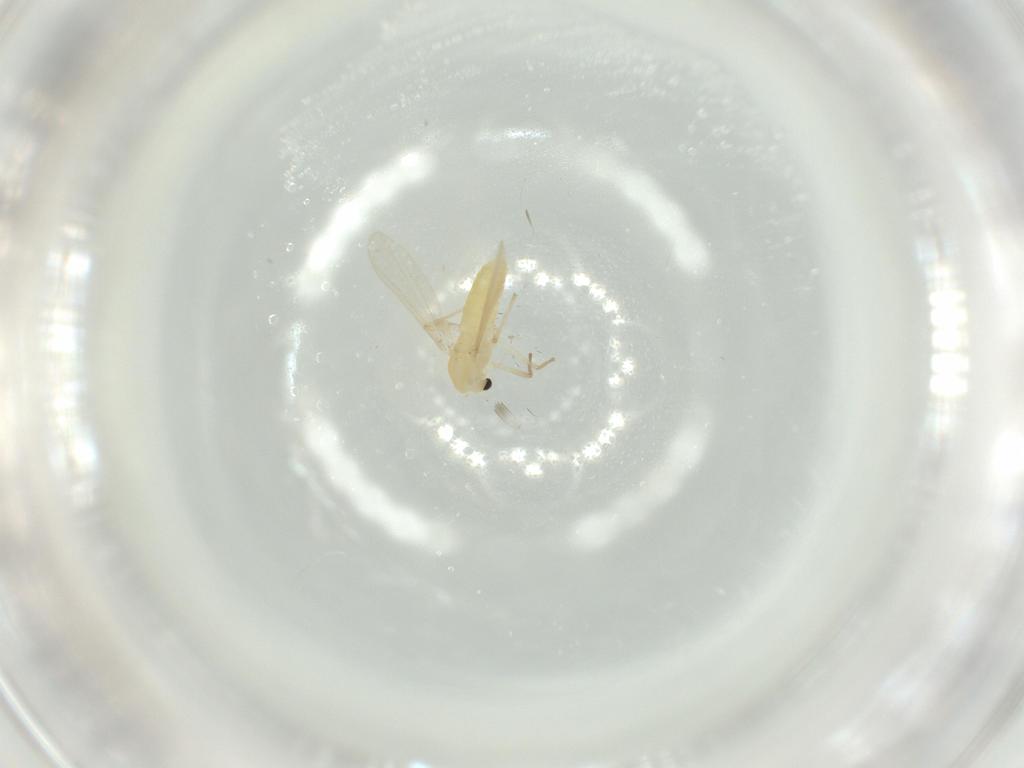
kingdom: Animalia
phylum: Arthropoda
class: Insecta
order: Diptera
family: Chironomidae
